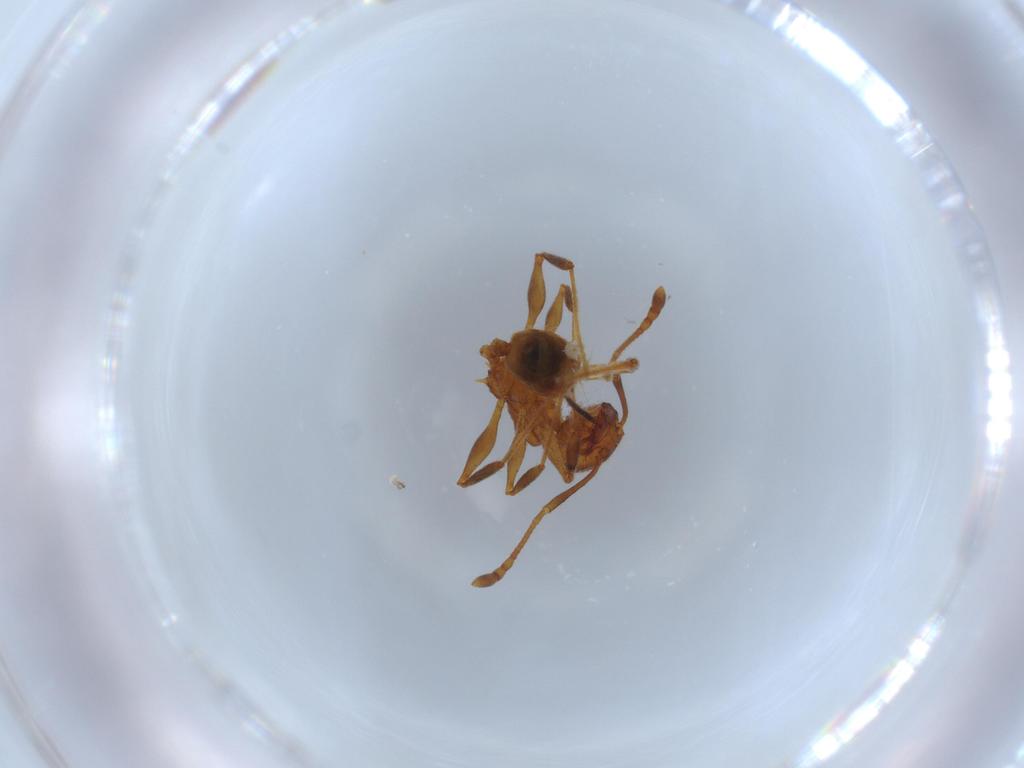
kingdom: Animalia
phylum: Arthropoda
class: Insecta
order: Hymenoptera
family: Formicidae
